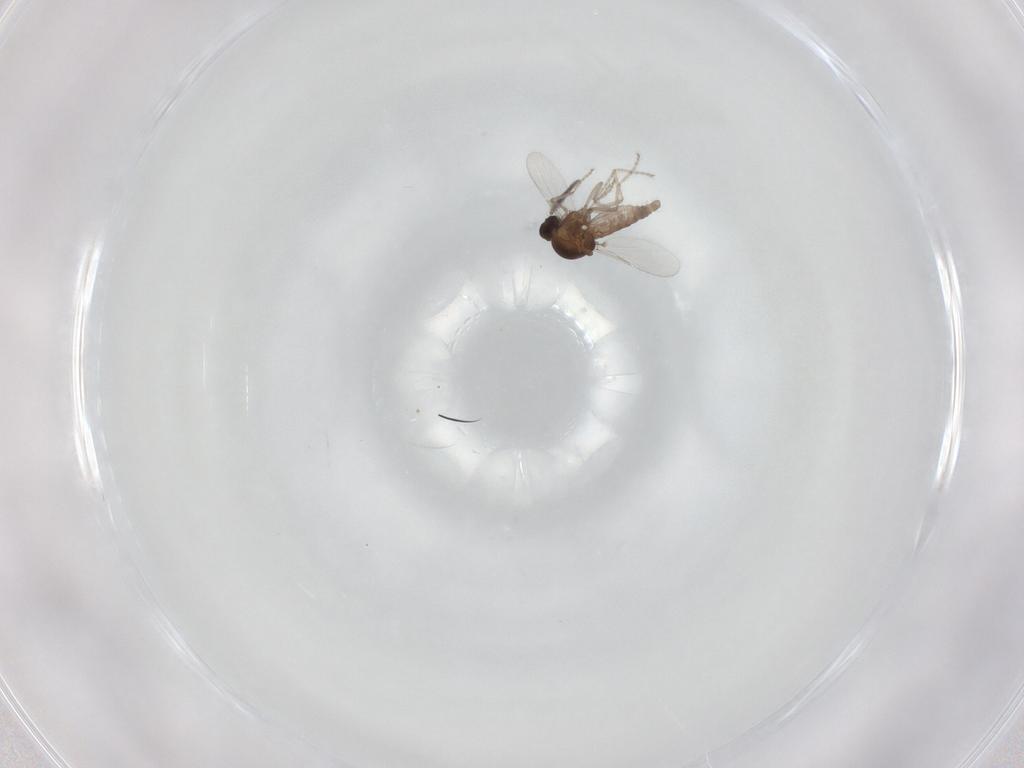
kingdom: Animalia
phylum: Arthropoda
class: Insecta
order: Diptera
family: Ceratopogonidae
